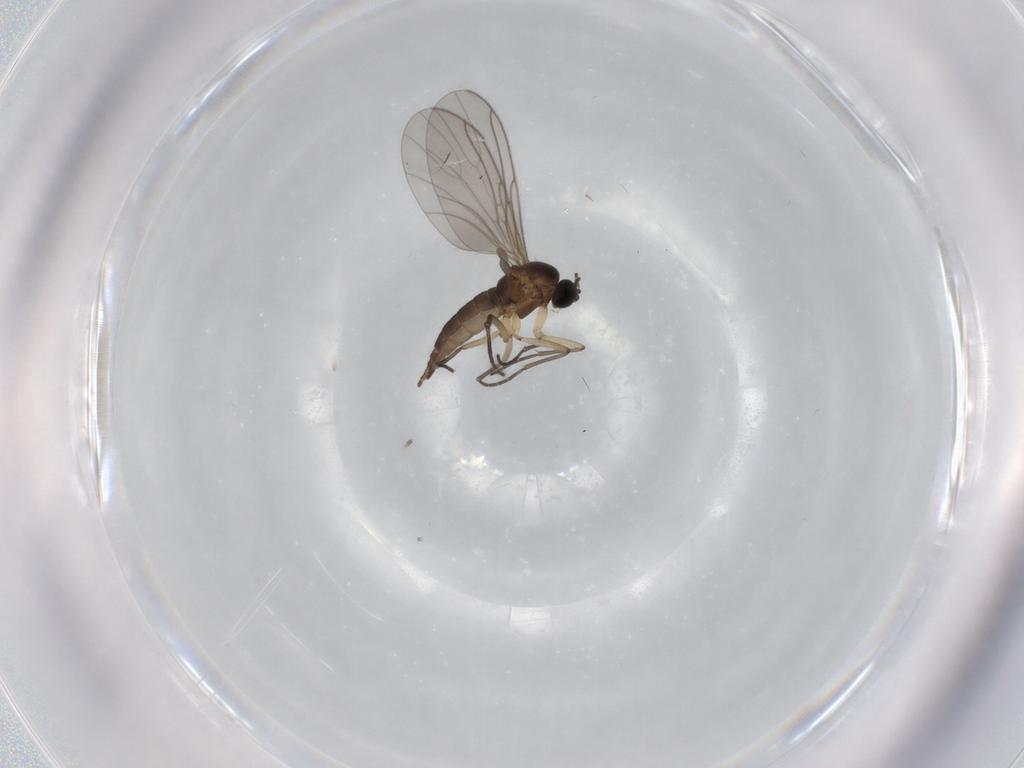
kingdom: Animalia
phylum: Arthropoda
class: Insecta
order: Diptera
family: Sciaridae
